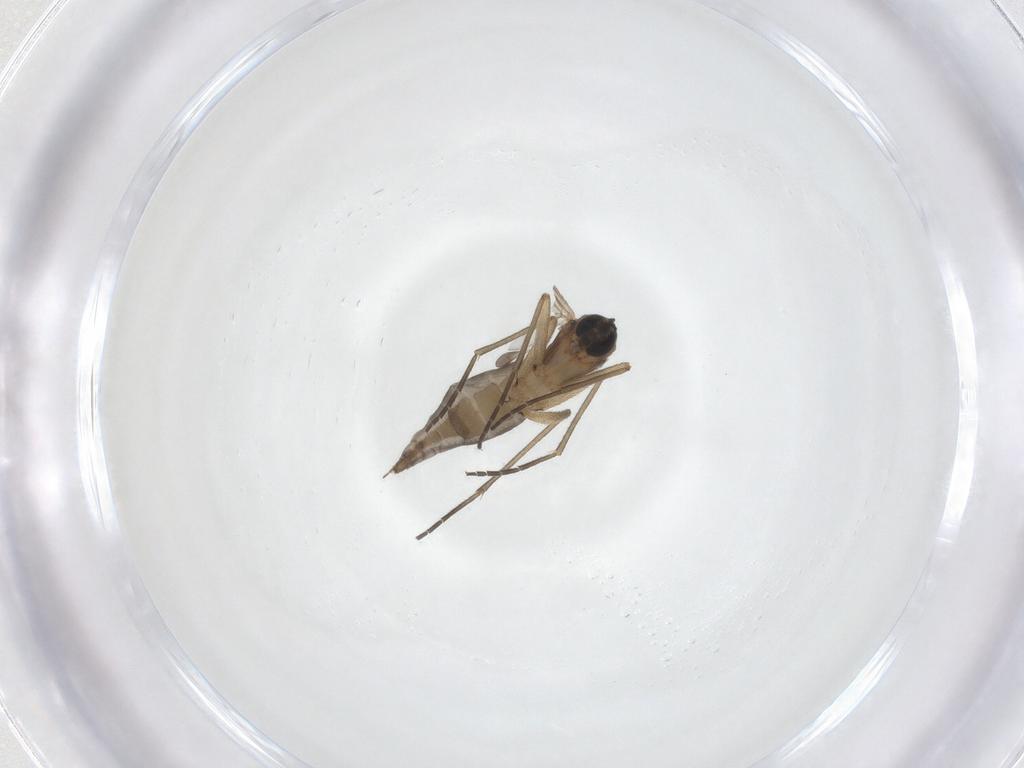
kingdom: Animalia
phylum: Arthropoda
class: Insecta
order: Diptera
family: Sciaridae
